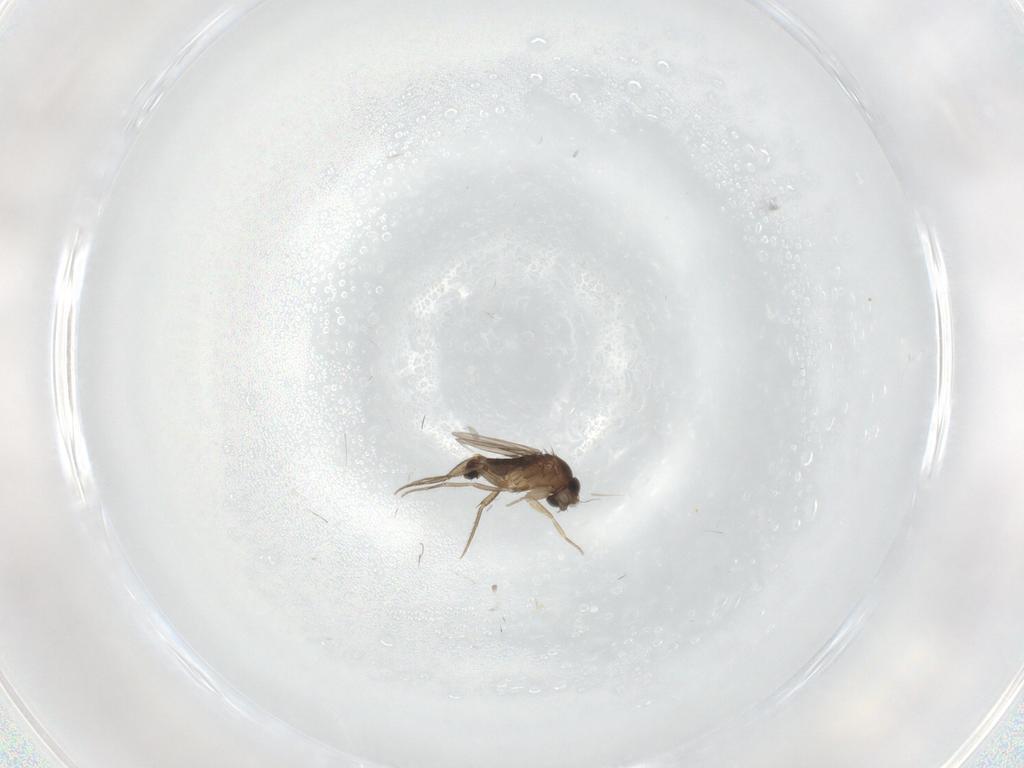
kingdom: Animalia
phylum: Arthropoda
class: Insecta
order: Diptera
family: Phoridae
